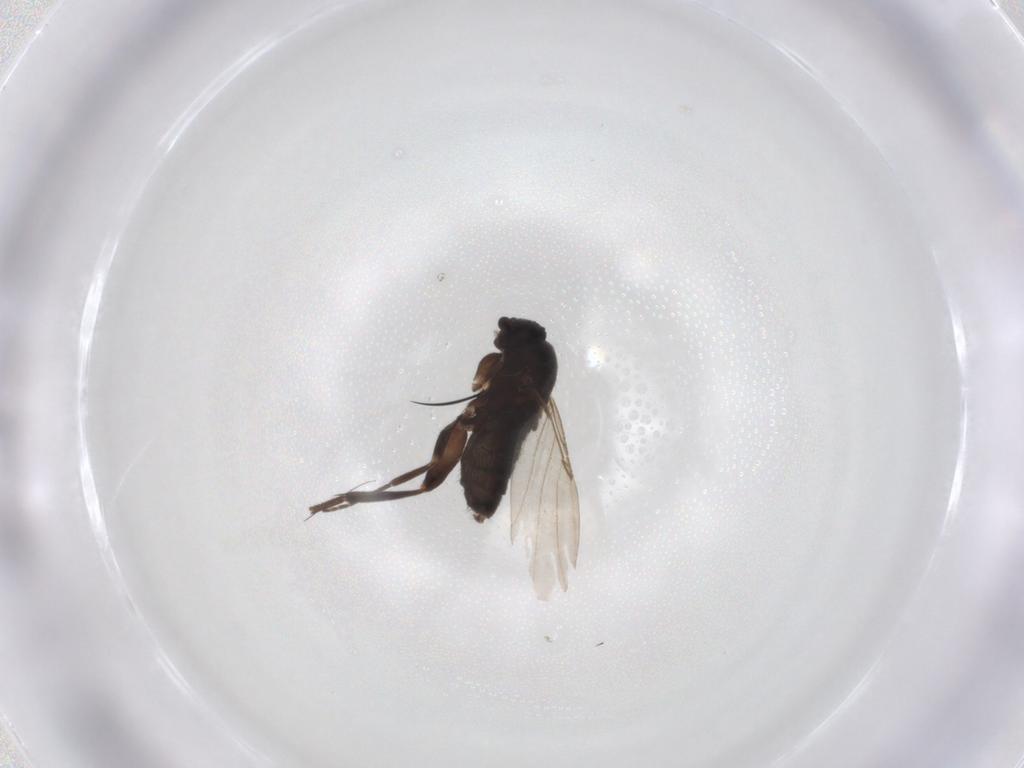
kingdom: Animalia
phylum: Arthropoda
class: Insecta
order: Diptera
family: Phoridae
